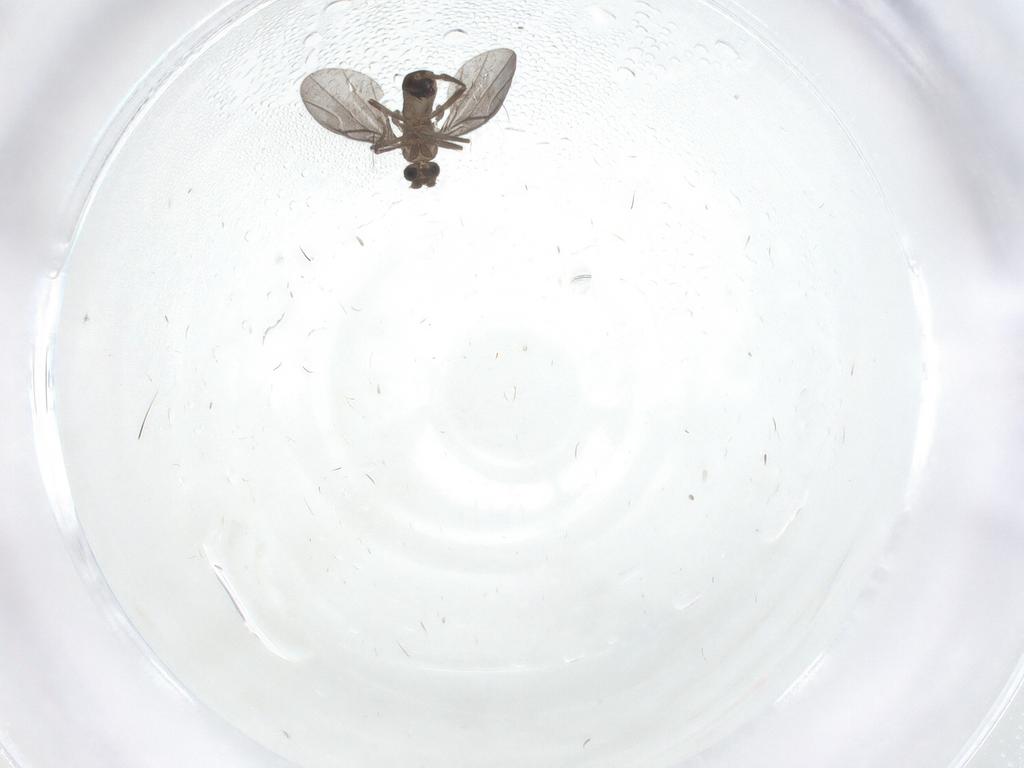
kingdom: Animalia
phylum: Arthropoda
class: Insecta
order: Diptera
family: Phoridae
